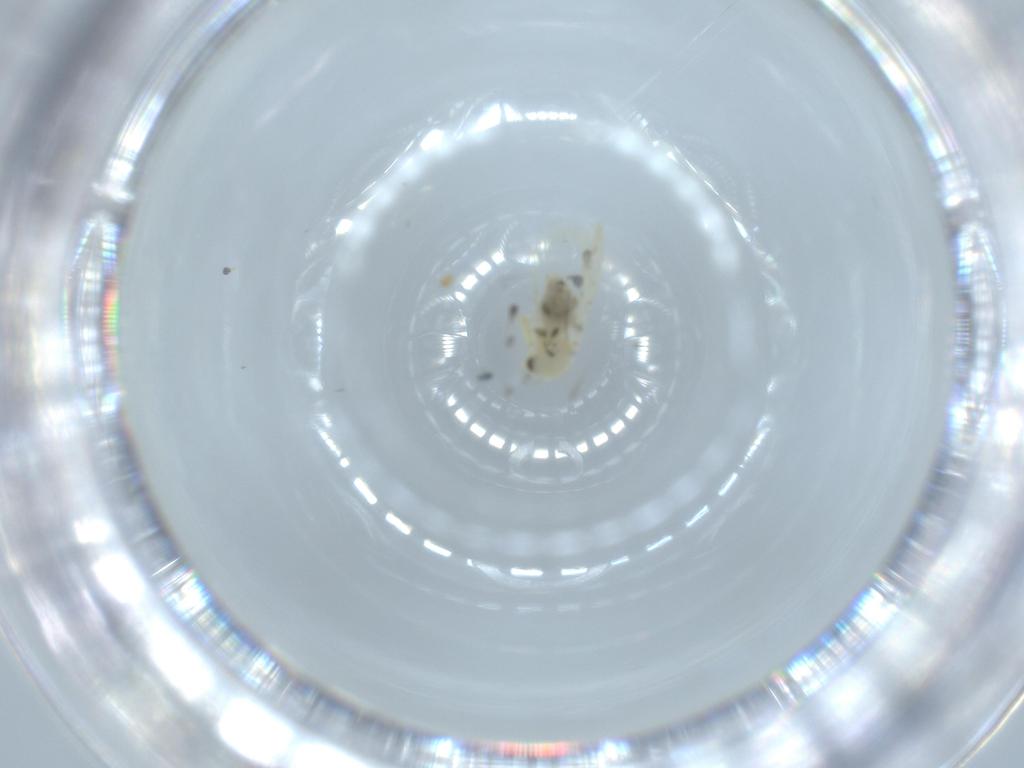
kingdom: Animalia
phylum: Arthropoda
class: Insecta
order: Hemiptera
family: Aleyrodidae
